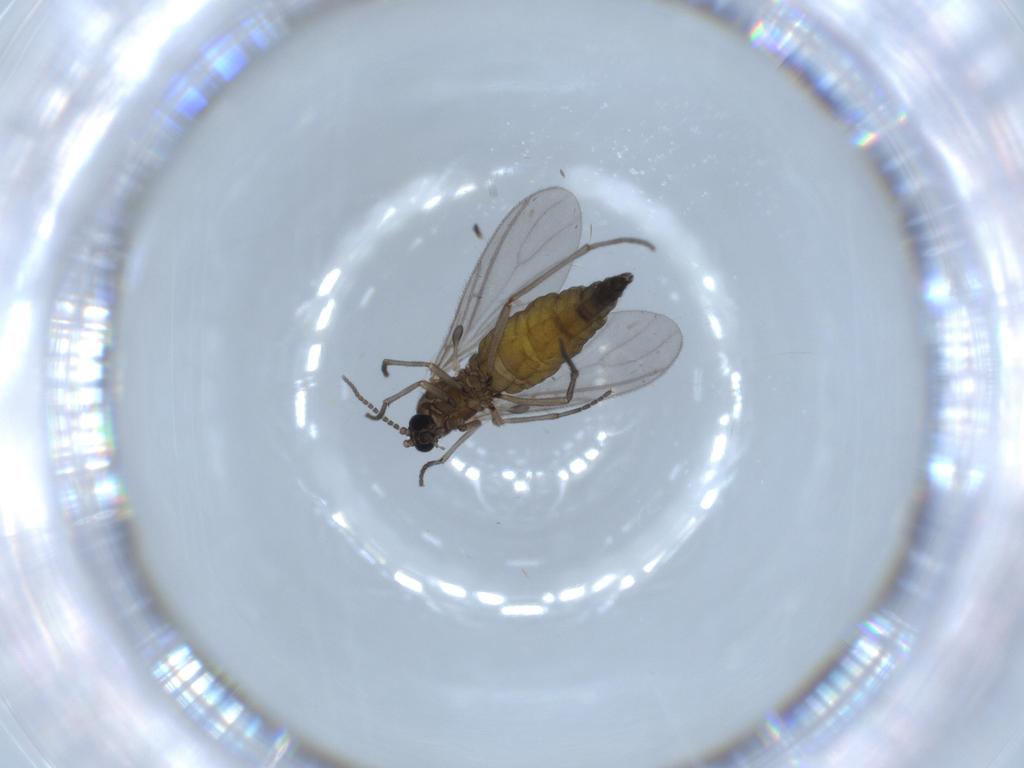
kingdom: Animalia
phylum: Arthropoda
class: Insecta
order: Diptera
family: Sciaridae
